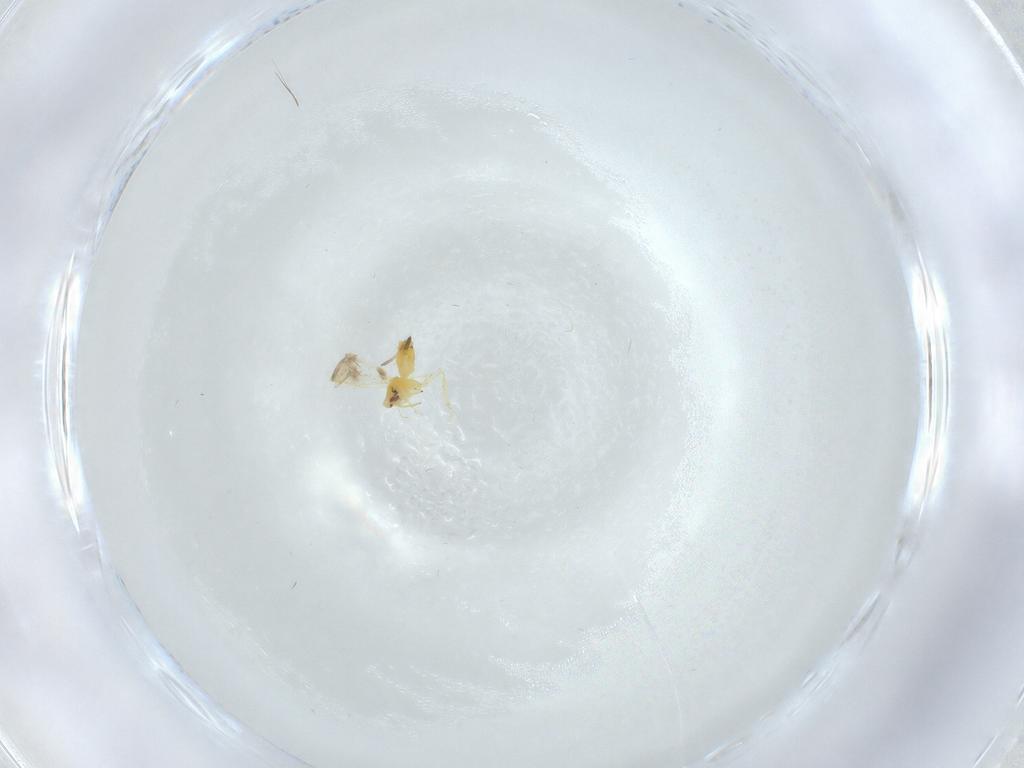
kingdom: Animalia
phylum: Arthropoda
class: Insecta
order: Hemiptera
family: Aleyrodidae
